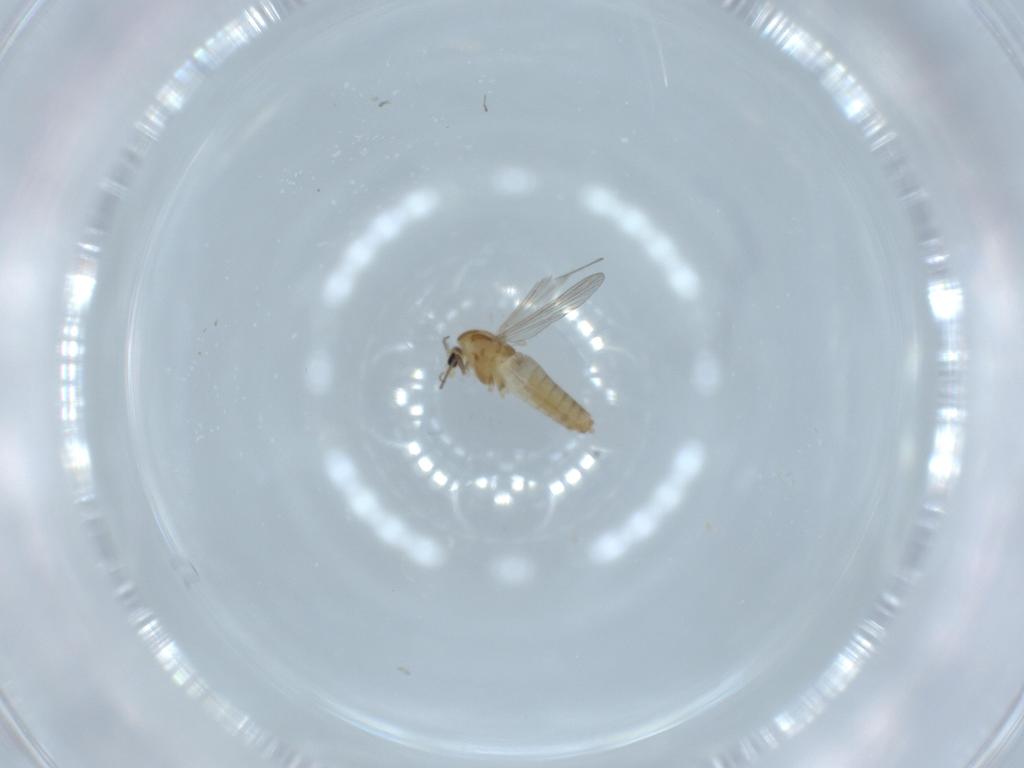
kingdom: Animalia
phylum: Arthropoda
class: Insecta
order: Diptera
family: Chironomidae
